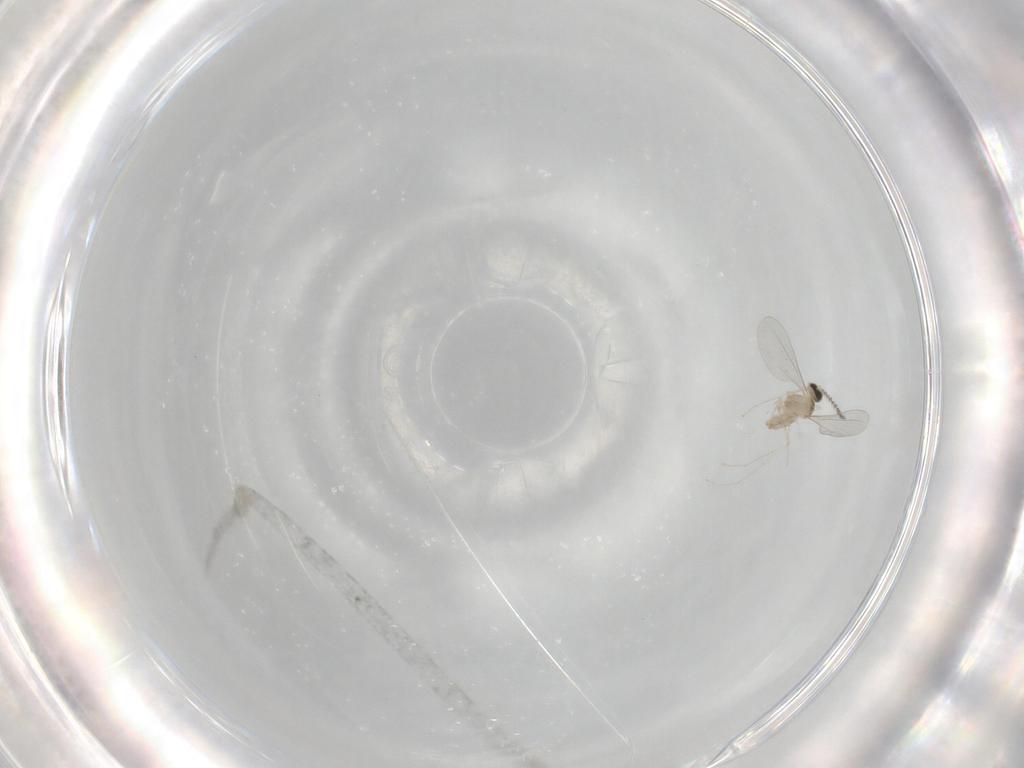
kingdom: Animalia
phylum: Arthropoda
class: Insecta
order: Diptera
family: Cecidomyiidae
